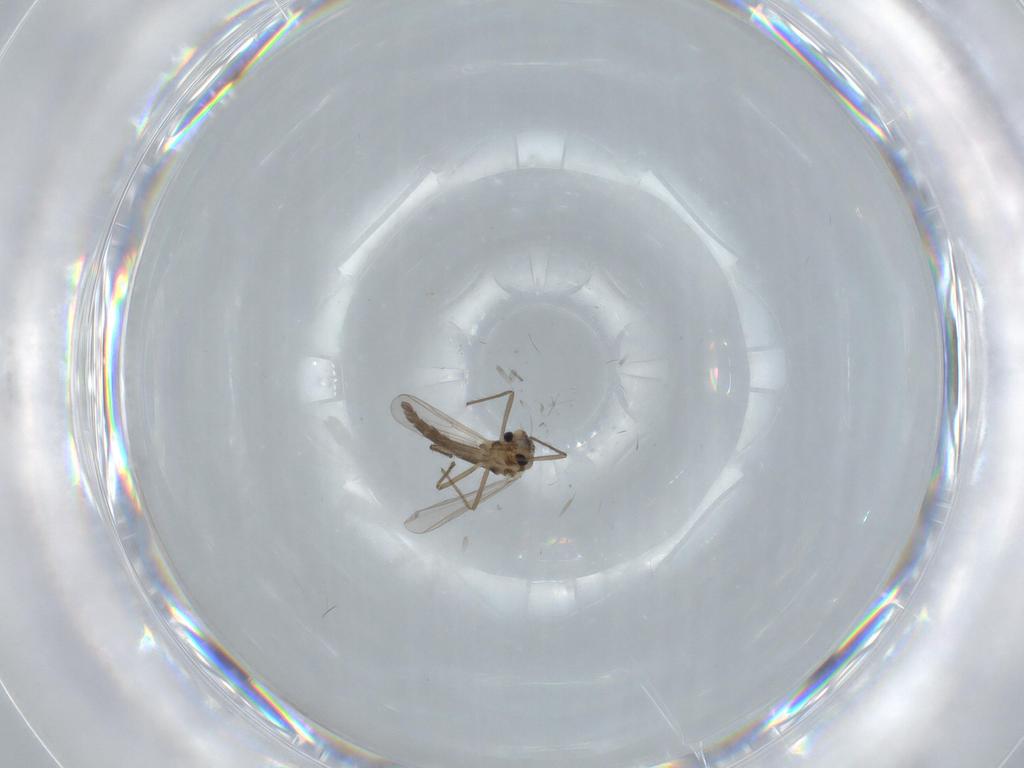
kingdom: Animalia
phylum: Arthropoda
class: Insecta
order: Diptera
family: Chironomidae
